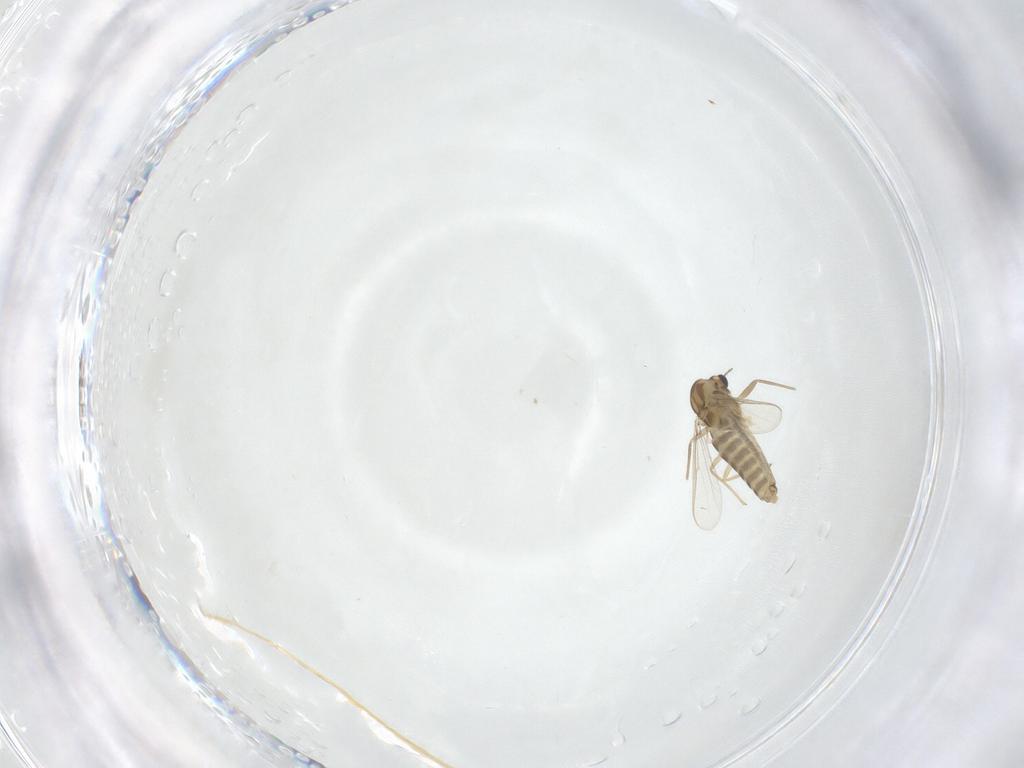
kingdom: Animalia
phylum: Arthropoda
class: Insecta
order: Diptera
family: Chironomidae
